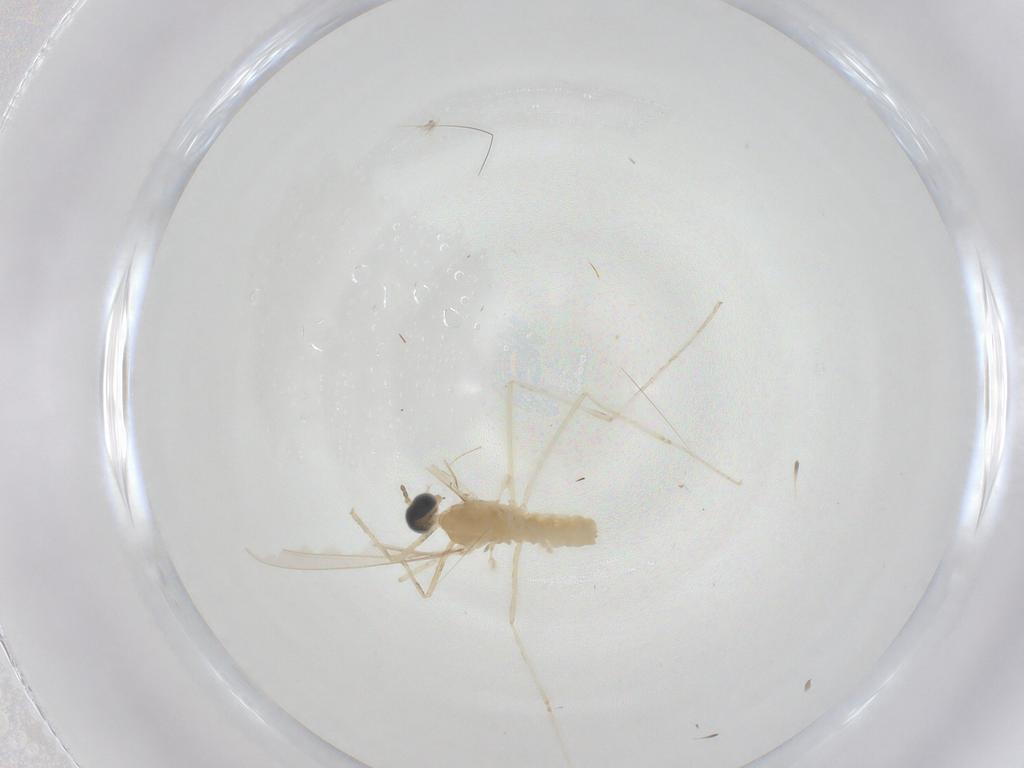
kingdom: Animalia
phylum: Arthropoda
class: Insecta
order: Diptera
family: Cecidomyiidae
